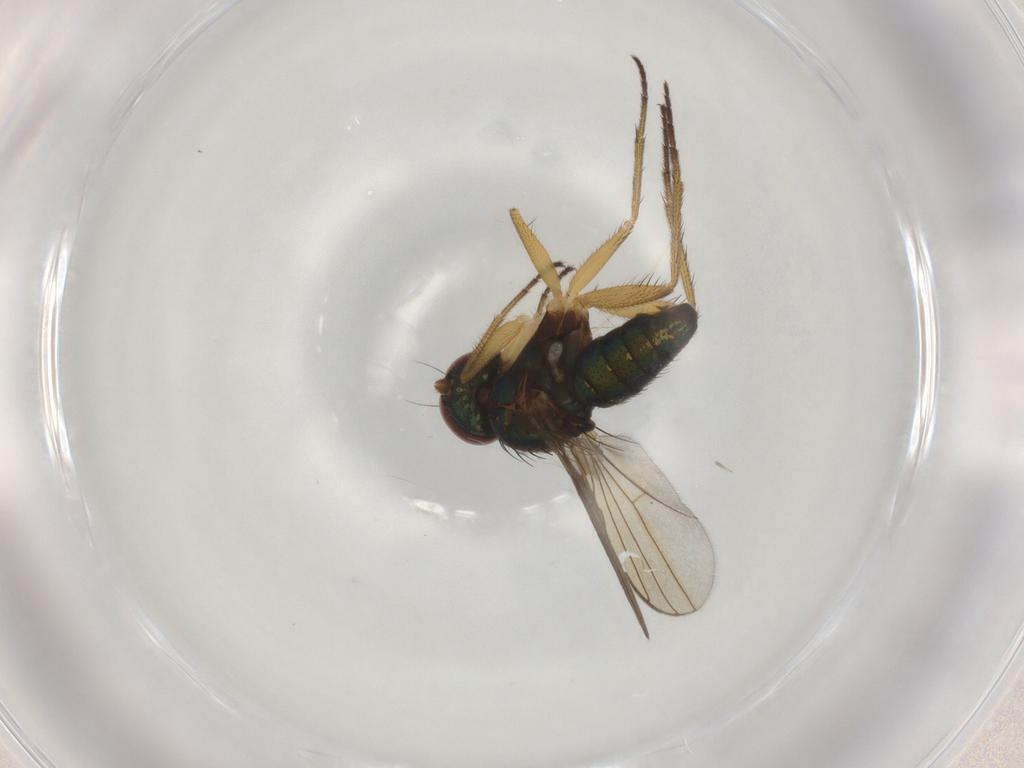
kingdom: Animalia
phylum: Arthropoda
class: Insecta
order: Diptera
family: Dolichopodidae
